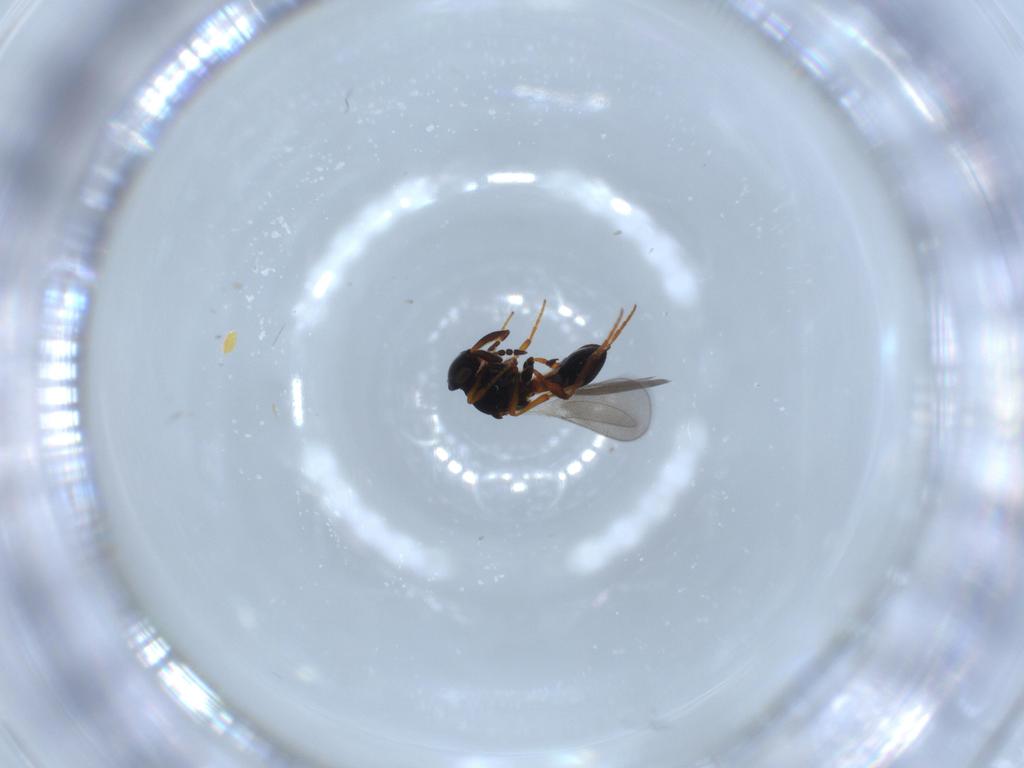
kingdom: Animalia
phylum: Arthropoda
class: Insecta
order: Hymenoptera
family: Platygastridae
